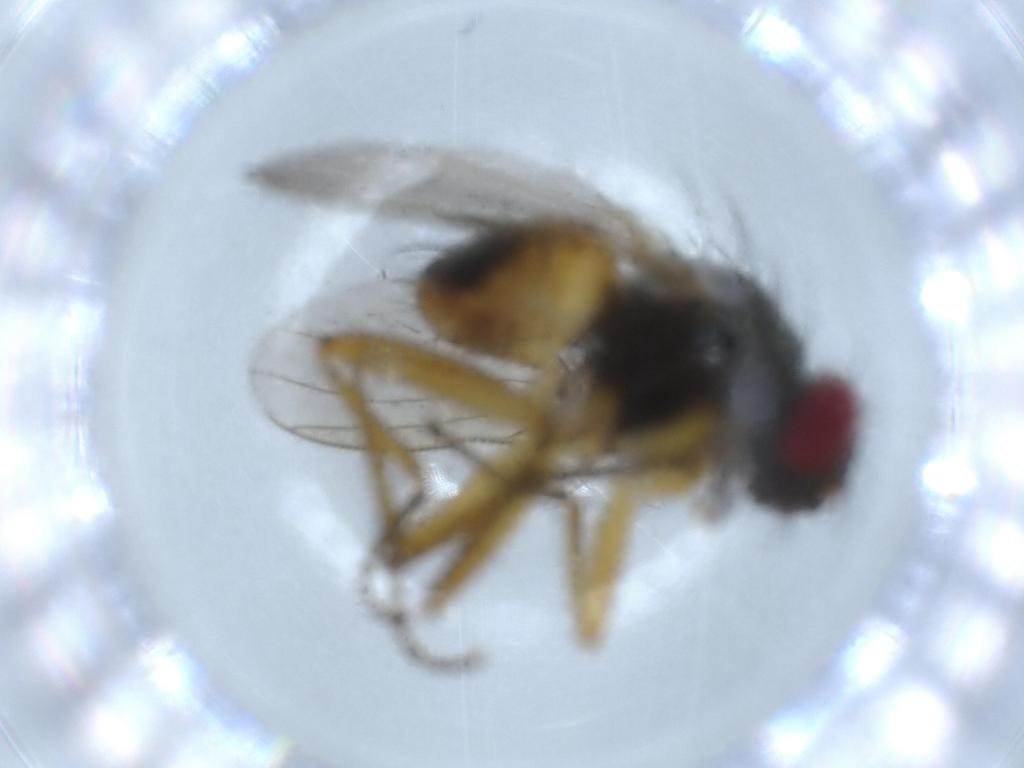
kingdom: Animalia
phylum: Arthropoda
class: Insecta
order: Diptera
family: Muscidae
